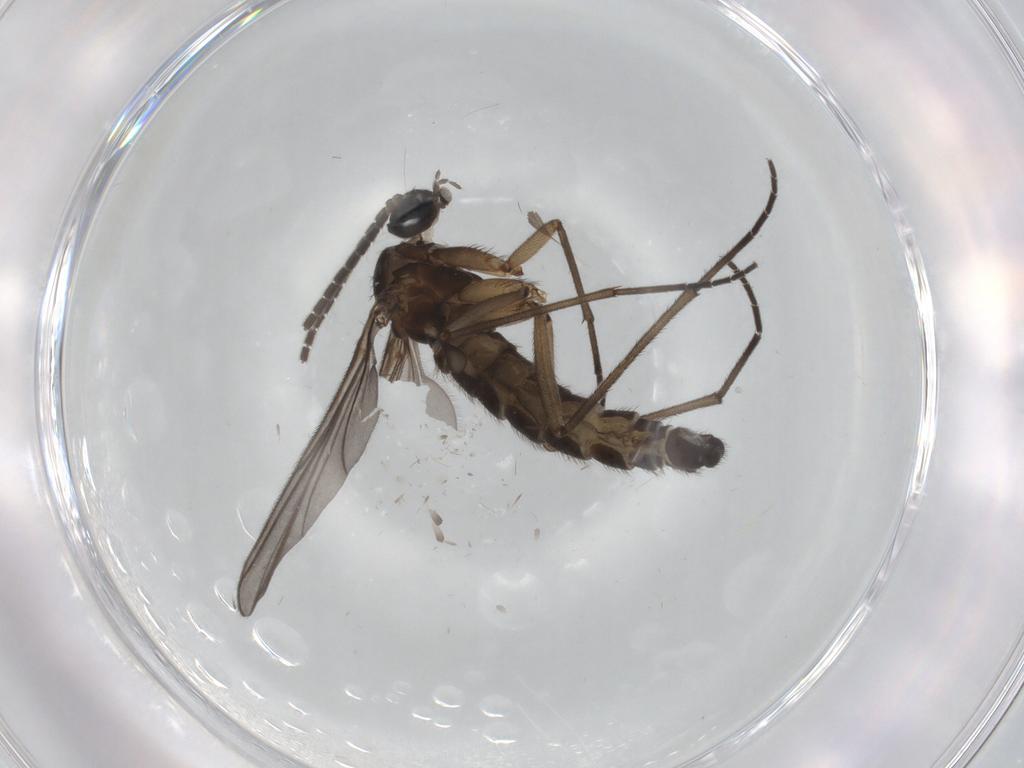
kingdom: Animalia
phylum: Arthropoda
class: Insecta
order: Diptera
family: Sciaridae
